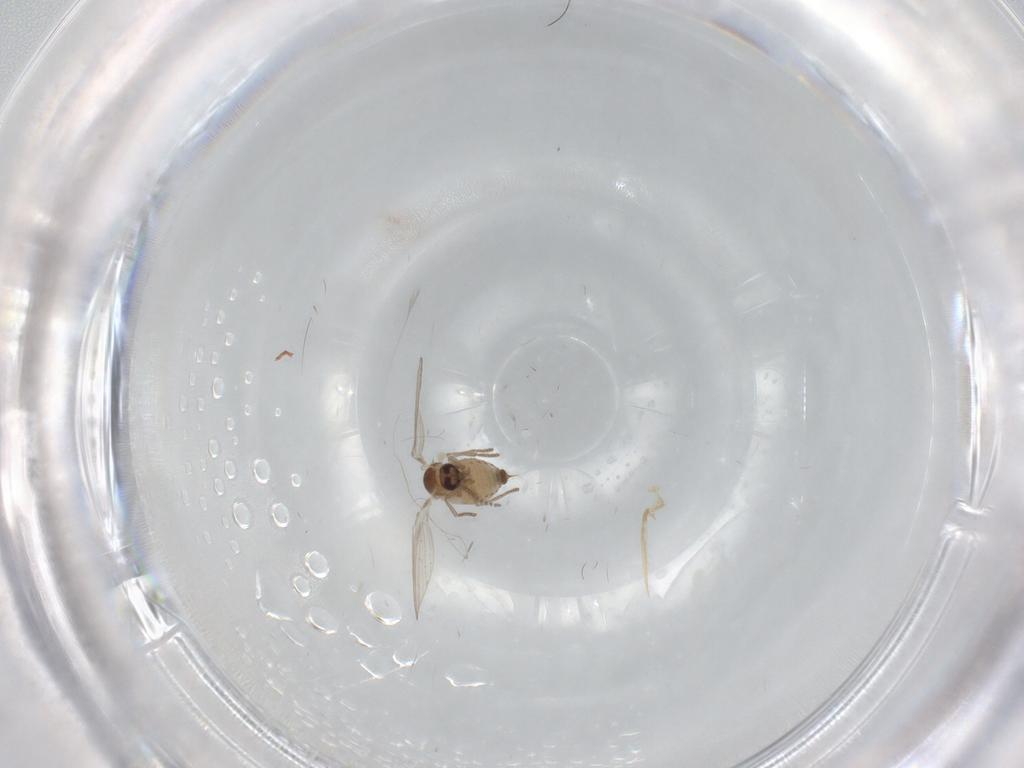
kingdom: Animalia
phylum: Arthropoda
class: Insecta
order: Diptera
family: Psychodidae
